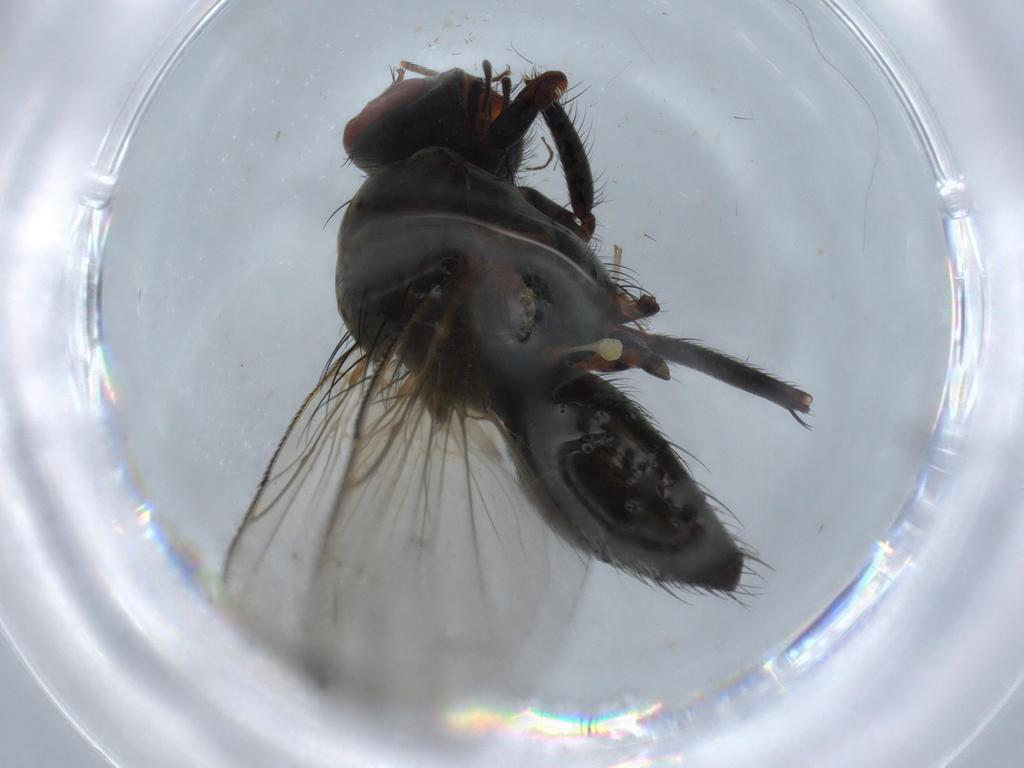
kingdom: Animalia
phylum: Arthropoda
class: Insecta
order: Diptera
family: Anthomyiidae
